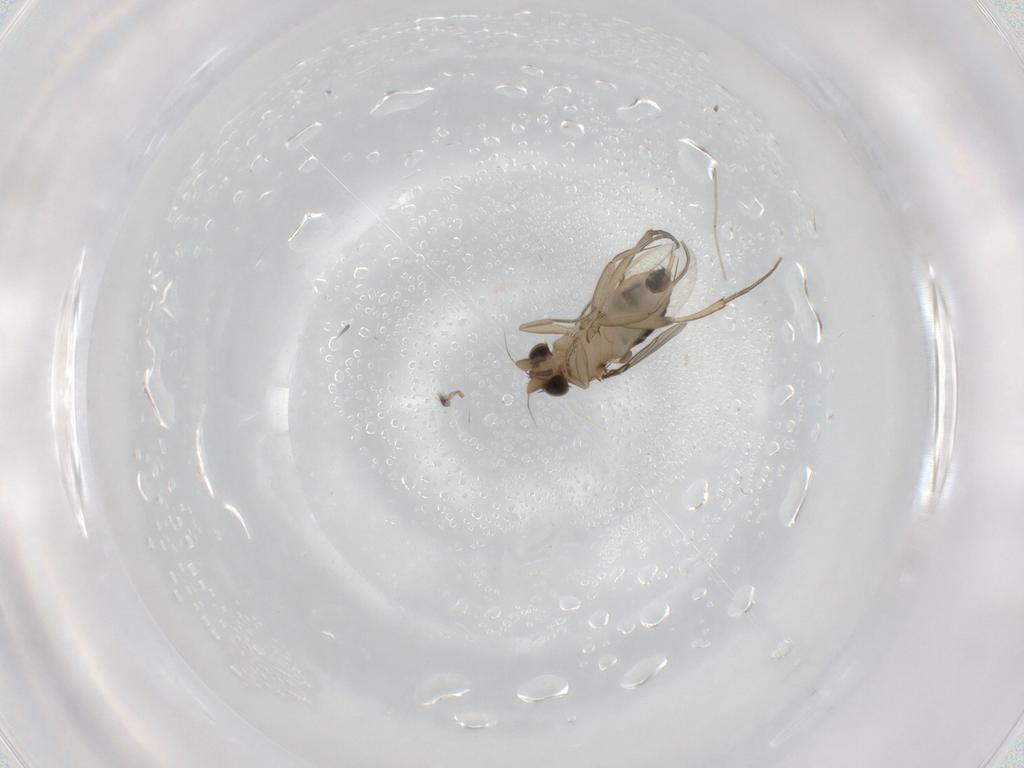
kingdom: Animalia
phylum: Arthropoda
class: Insecta
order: Diptera
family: Phoridae
